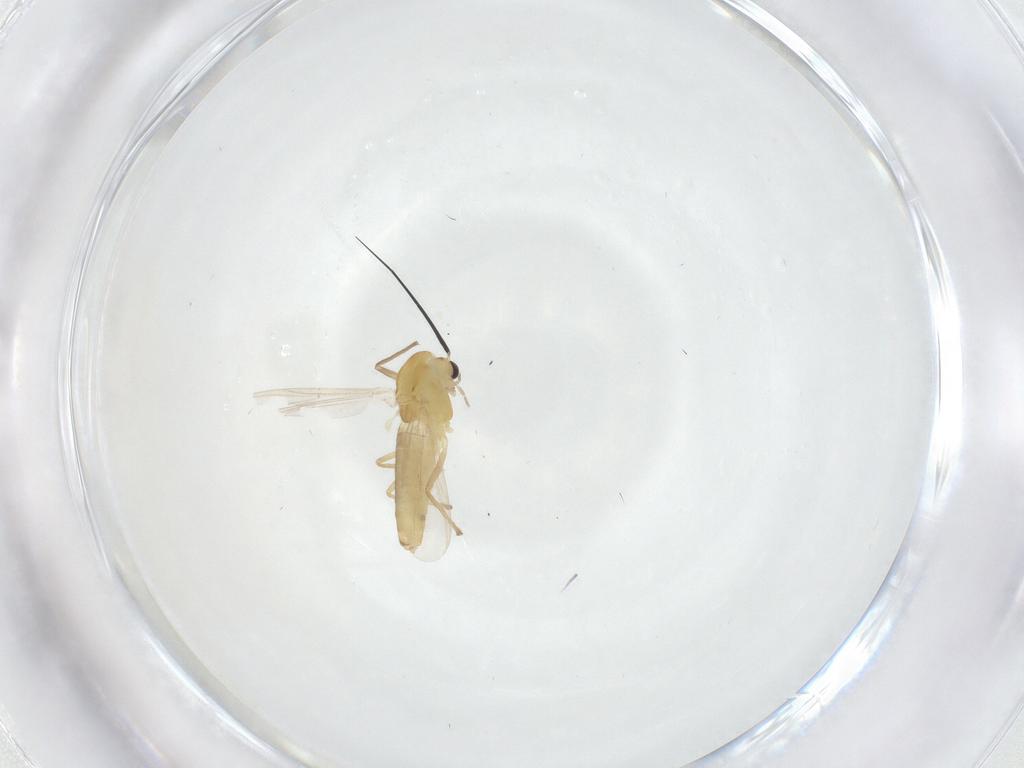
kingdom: Animalia
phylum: Arthropoda
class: Insecta
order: Diptera
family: Chironomidae
